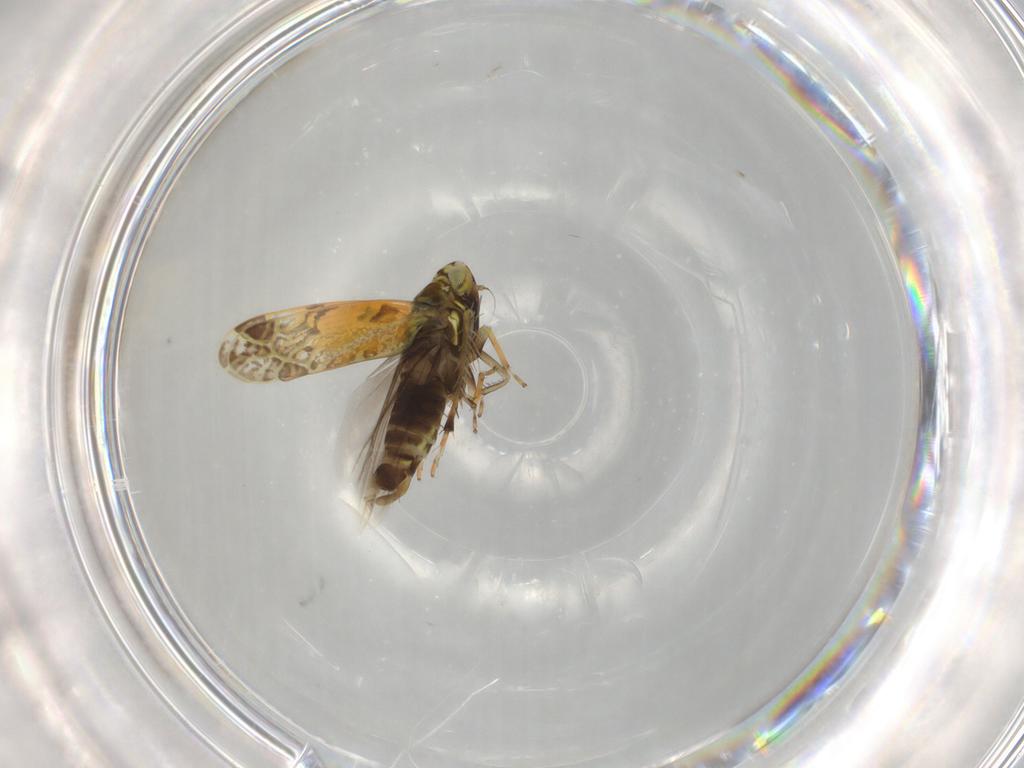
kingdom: Animalia
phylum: Arthropoda
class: Insecta
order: Hemiptera
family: Cicadellidae
